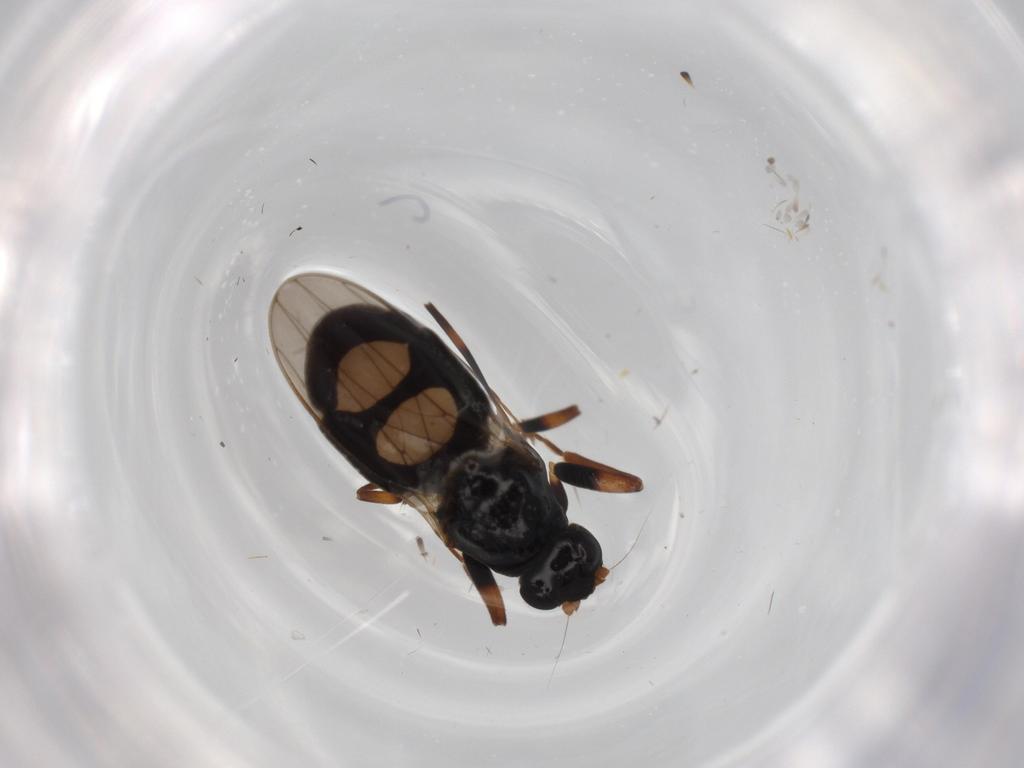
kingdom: Animalia
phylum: Arthropoda
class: Insecta
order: Diptera
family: Sphaeroceridae
